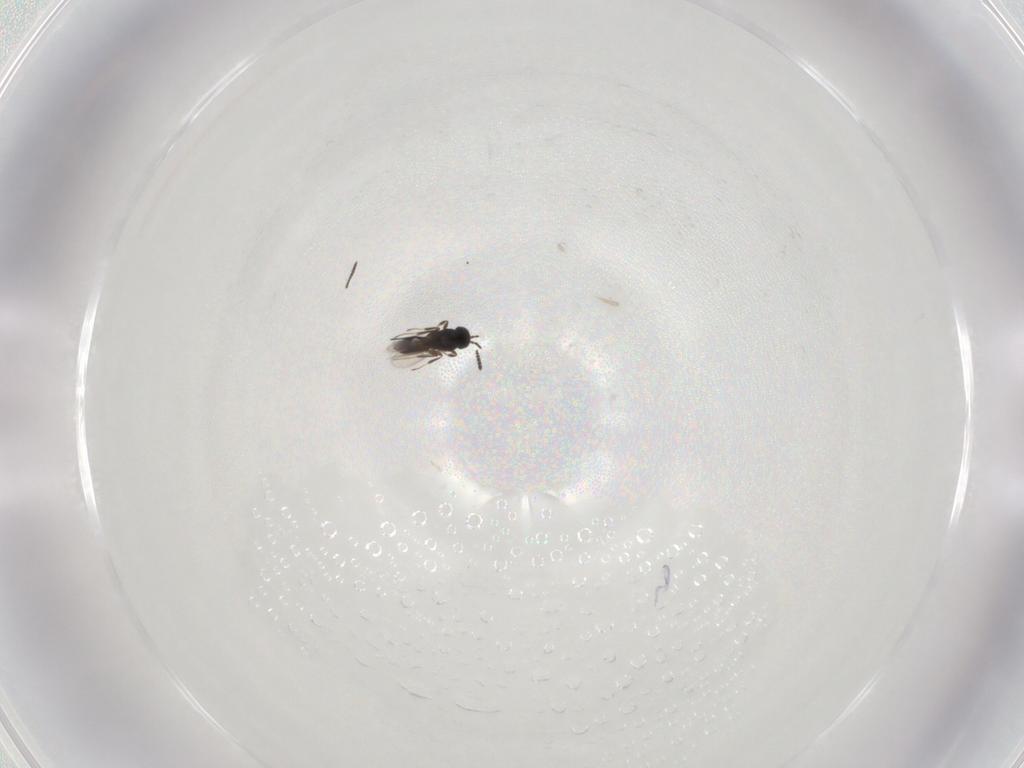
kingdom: Animalia
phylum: Arthropoda
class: Insecta
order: Hymenoptera
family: Scelionidae
